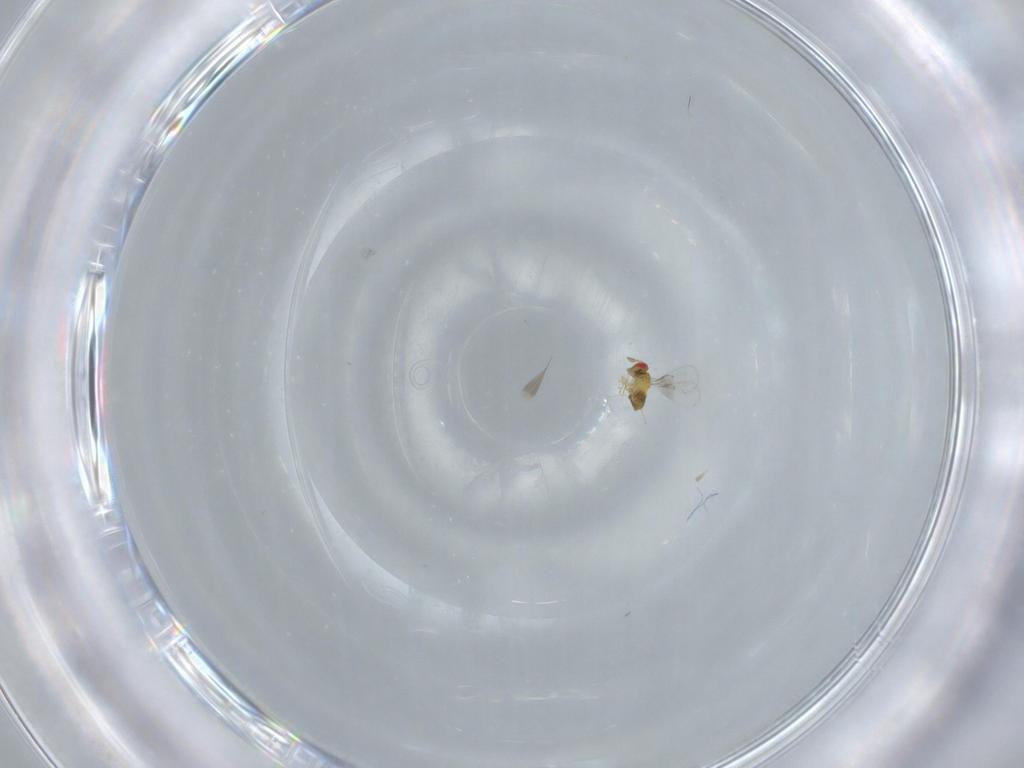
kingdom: Animalia
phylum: Arthropoda
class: Insecta
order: Hymenoptera
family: Trichogrammatidae
